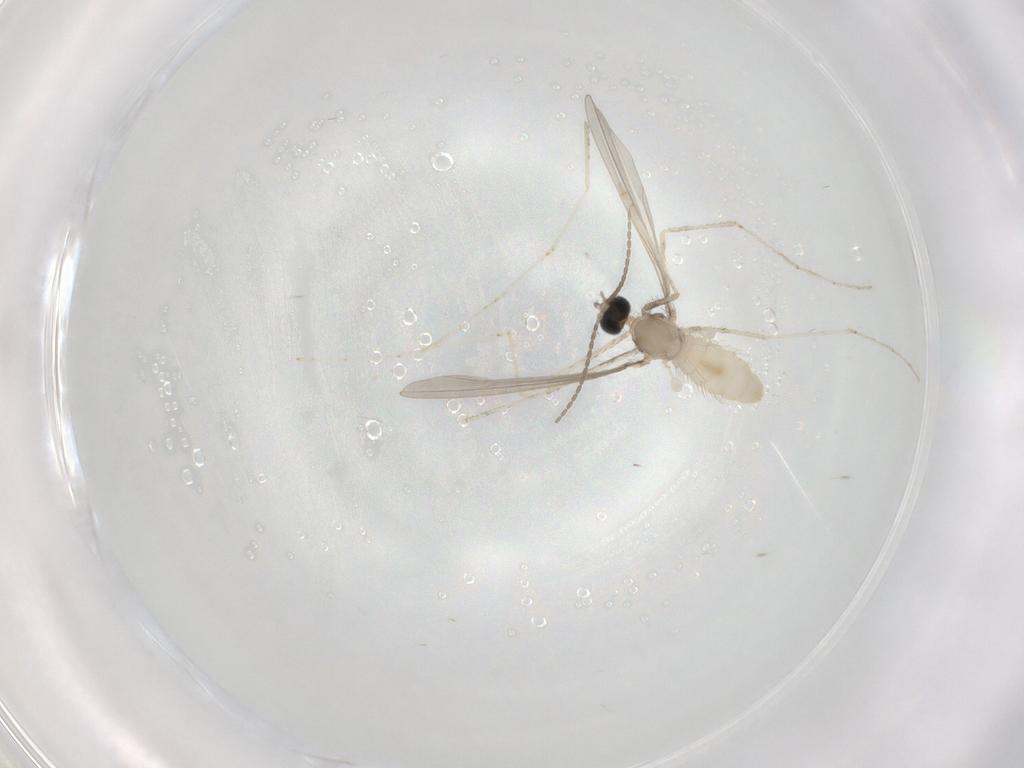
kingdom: Animalia
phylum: Arthropoda
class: Insecta
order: Diptera
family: Cecidomyiidae
